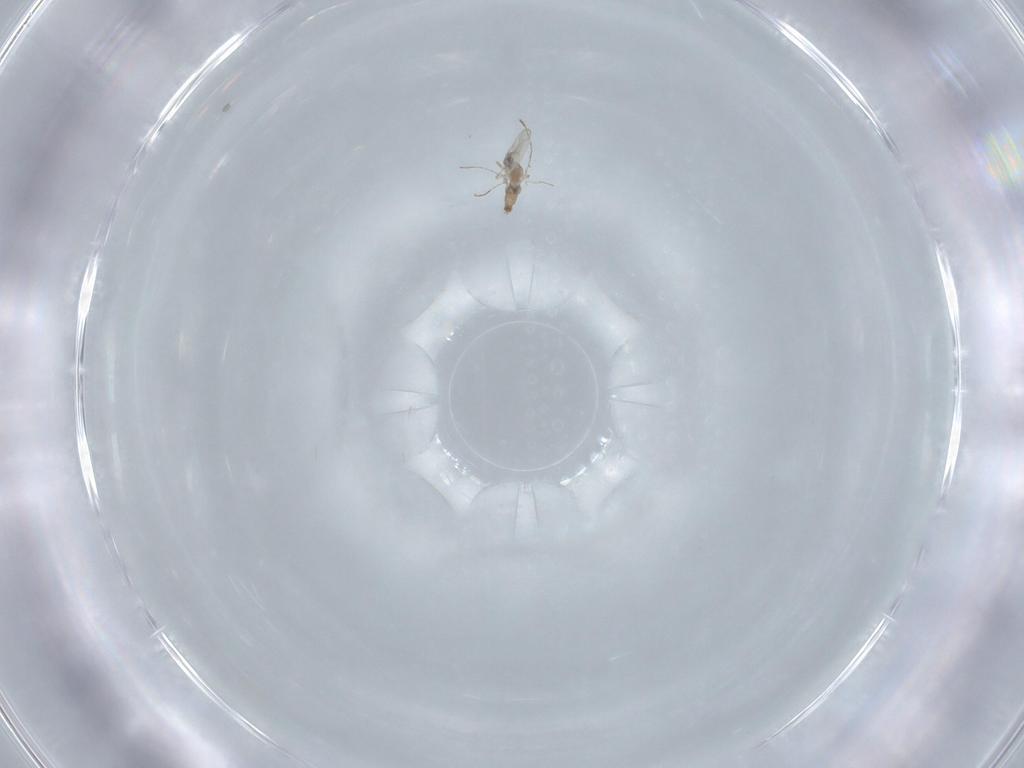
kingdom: Animalia
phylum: Arthropoda
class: Insecta
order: Diptera
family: Cecidomyiidae
